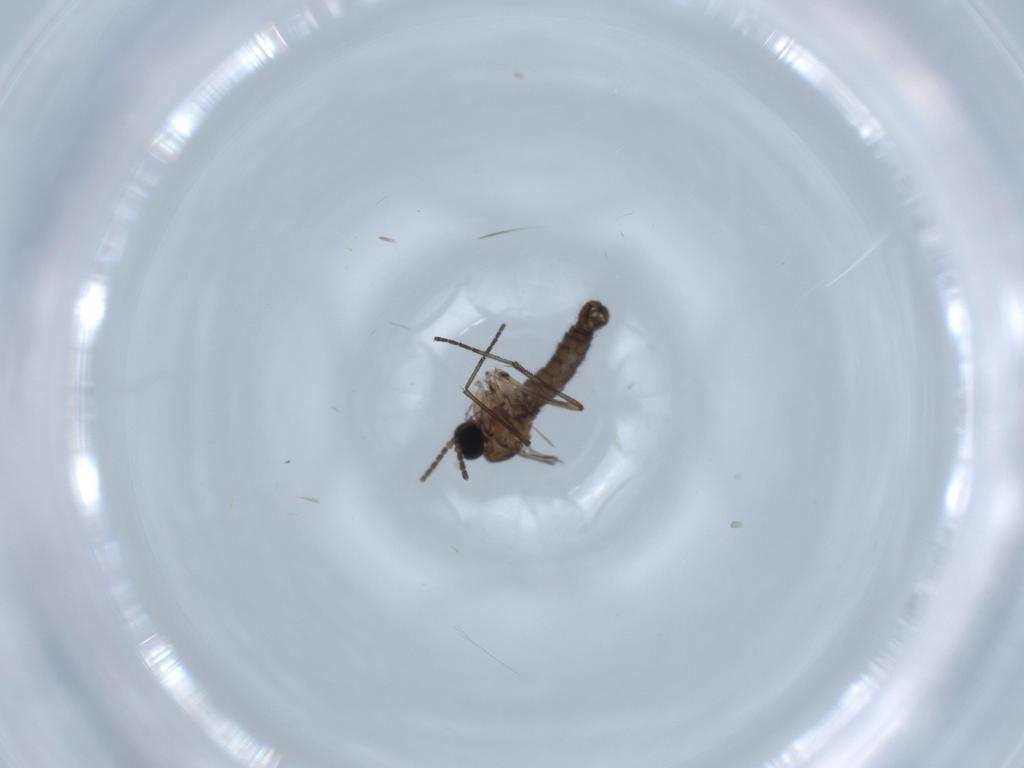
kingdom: Animalia
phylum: Arthropoda
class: Insecta
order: Diptera
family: Sciaridae
